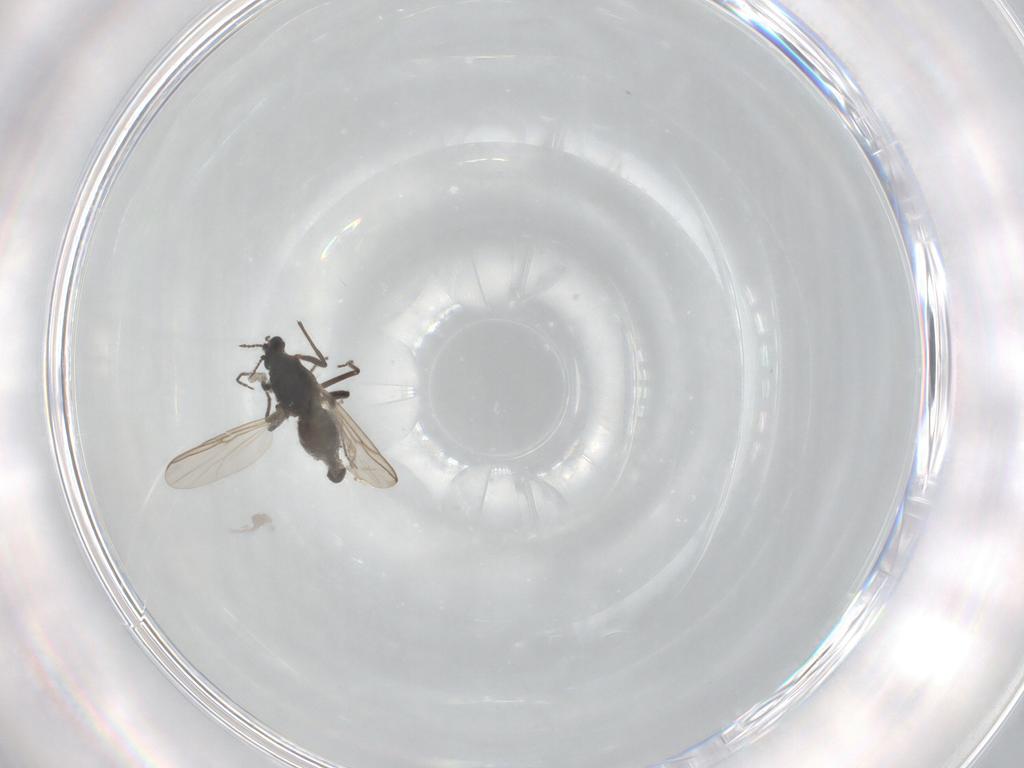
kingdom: Animalia
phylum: Arthropoda
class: Insecta
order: Diptera
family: Chironomidae
